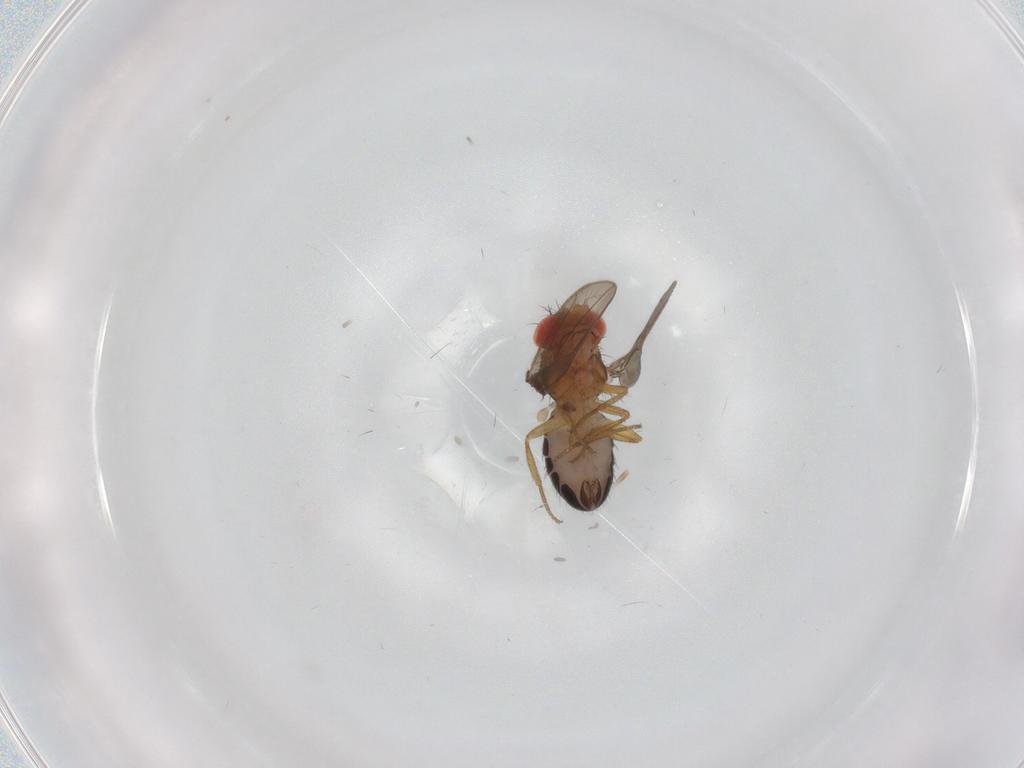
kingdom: Animalia
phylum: Arthropoda
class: Insecta
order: Diptera
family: Drosophilidae
